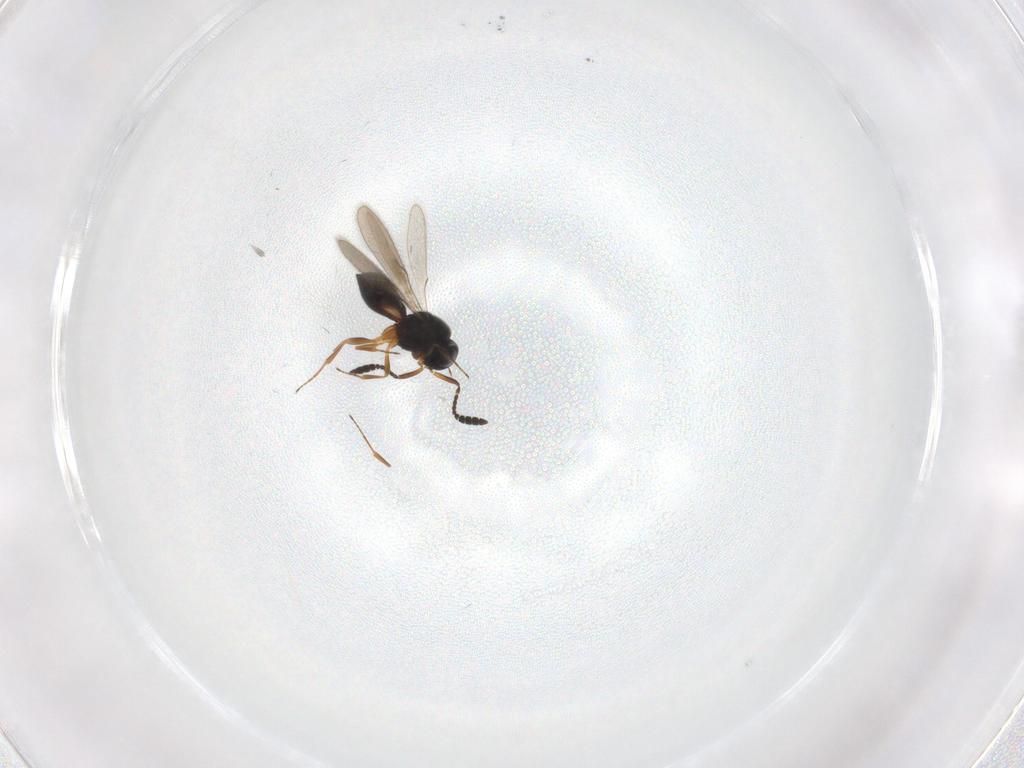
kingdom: Animalia
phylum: Arthropoda
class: Insecta
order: Hymenoptera
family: Scelionidae
